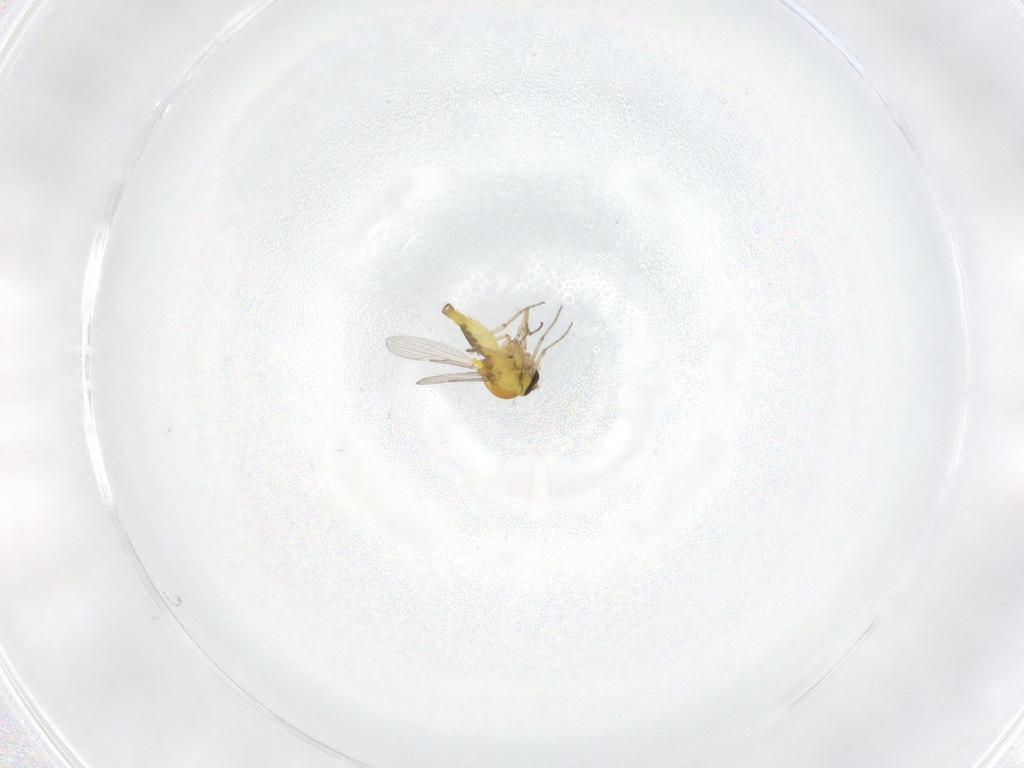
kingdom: Animalia
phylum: Arthropoda
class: Insecta
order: Diptera
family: Ceratopogonidae
